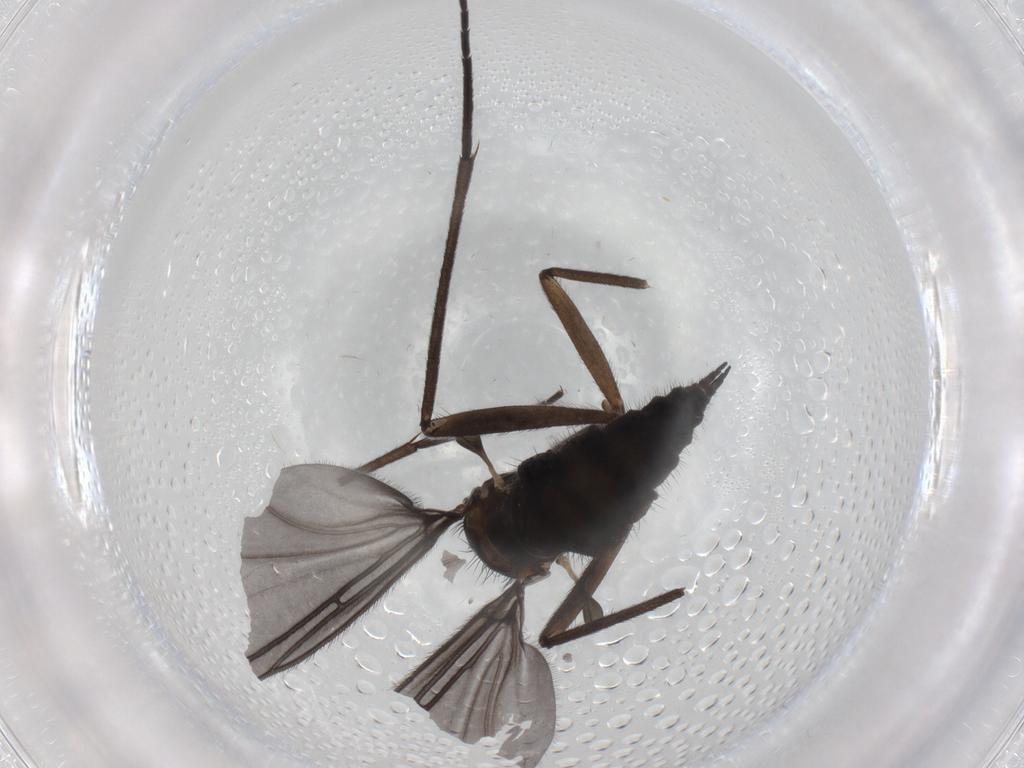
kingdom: Animalia
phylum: Arthropoda
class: Insecta
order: Diptera
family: Sciaridae
